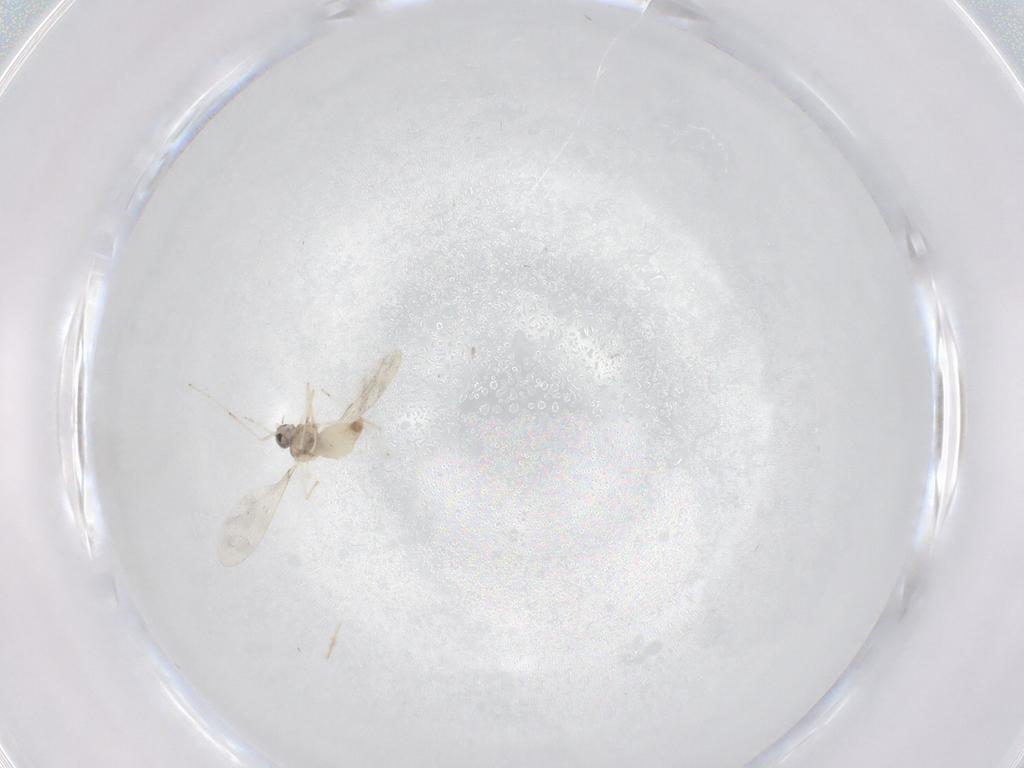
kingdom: Animalia
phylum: Arthropoda
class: Insecta
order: Diptera
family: Cecidomyiidae
